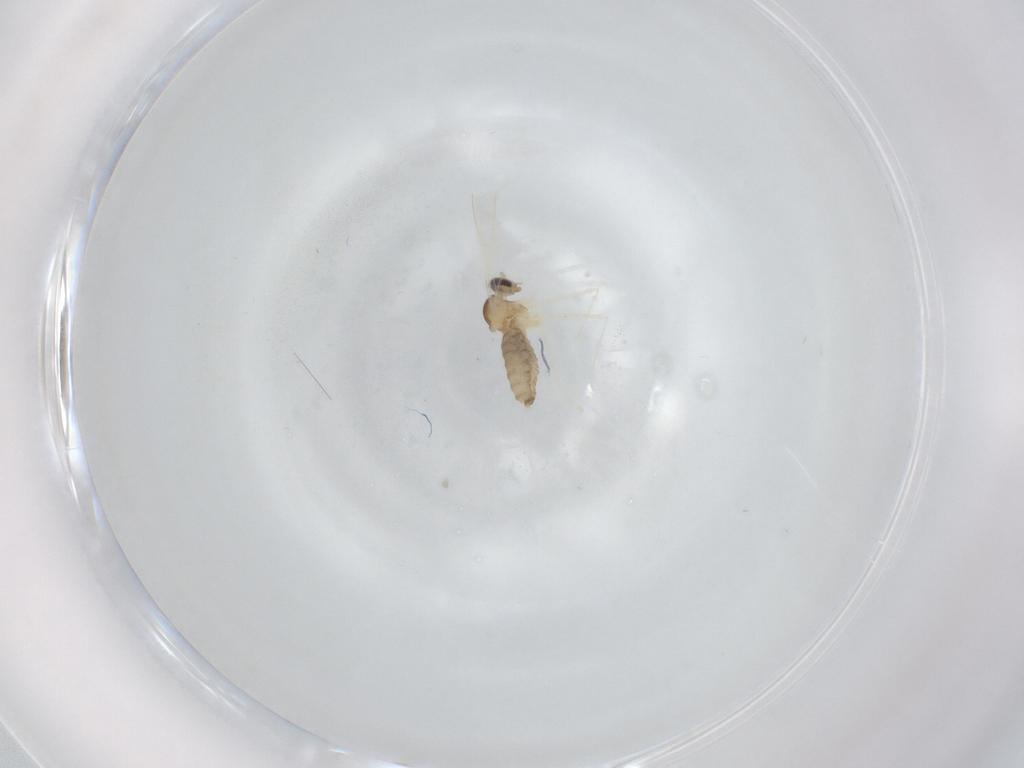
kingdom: Animalia
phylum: Arthropoda
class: Insecta
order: Diptera
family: Cecidomyiidae
